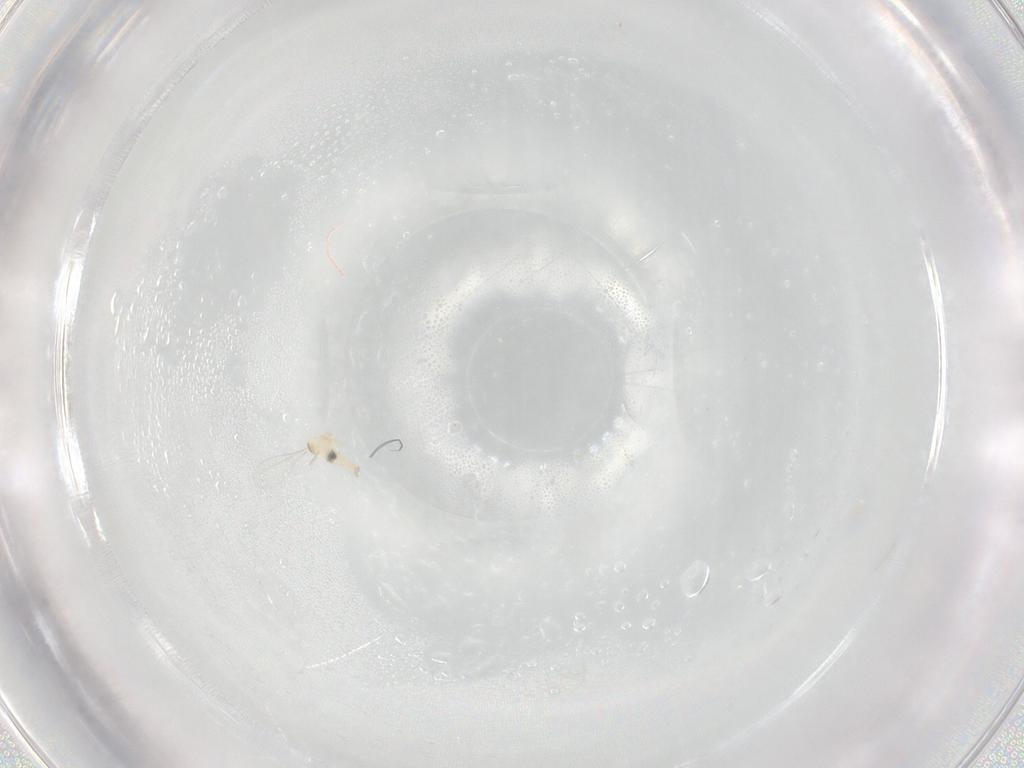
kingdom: Animalia
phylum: Arthropoda
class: Insecta
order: Diptera
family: Cecidomyiidae
